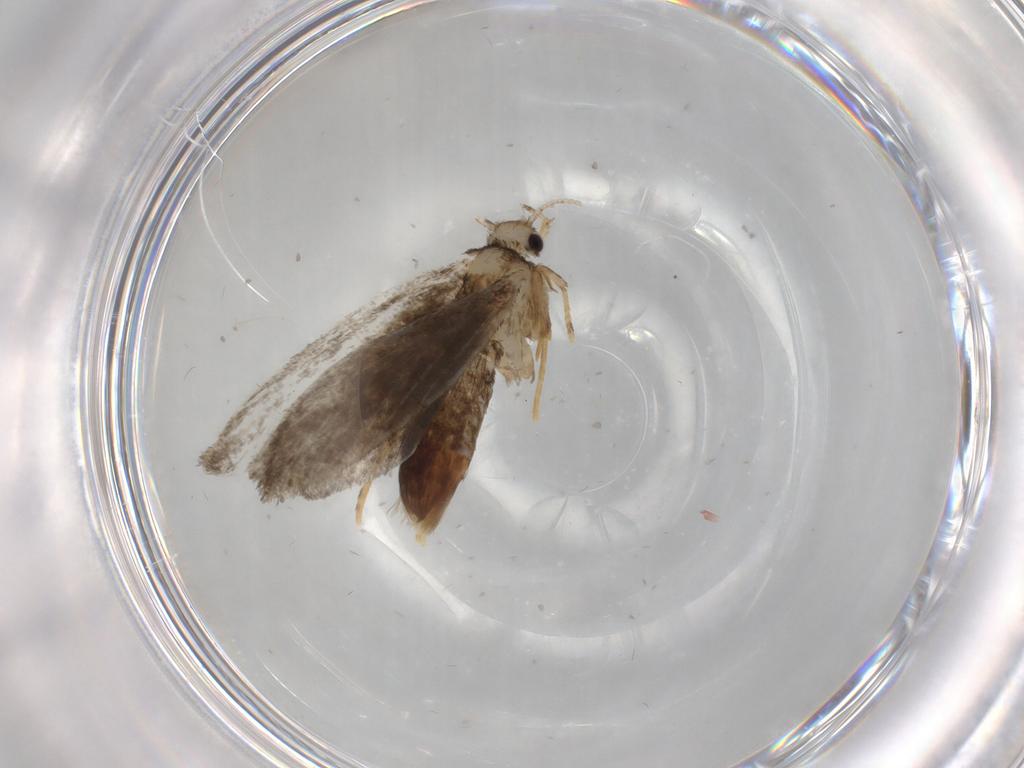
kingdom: Animalia
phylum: Arthropoda
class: Insecta
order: Lepidoptera
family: Psychidae
